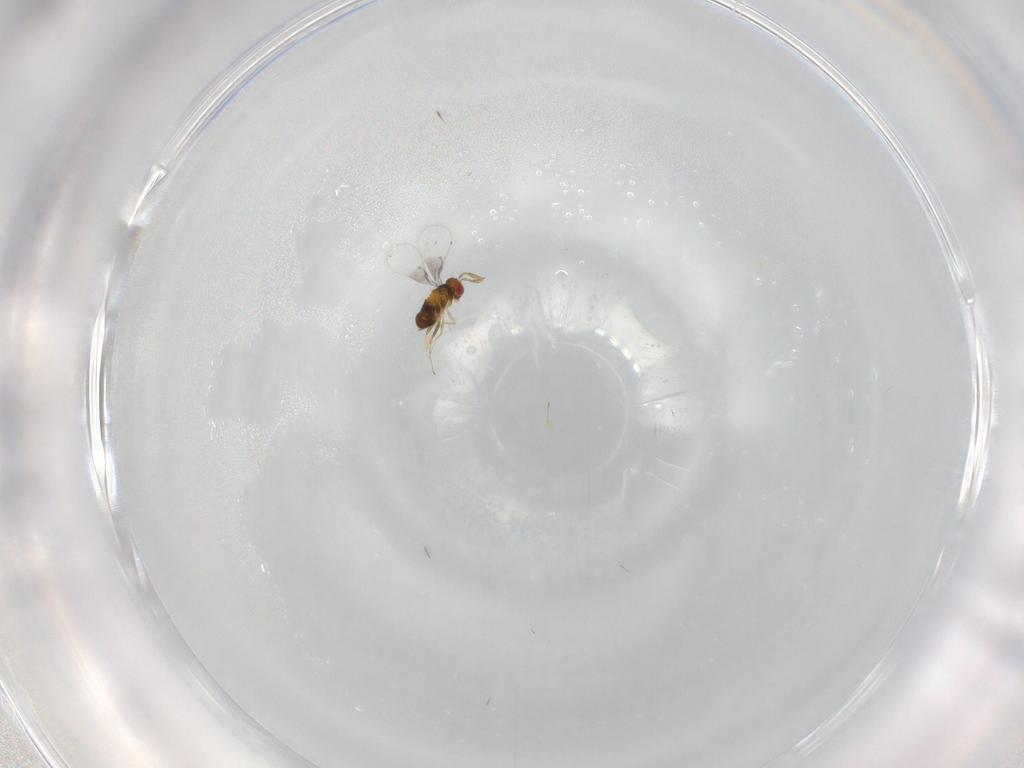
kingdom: Animalia
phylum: Arthropoda
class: Insecta
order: Hymenoptera
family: Trichogrammatidae
